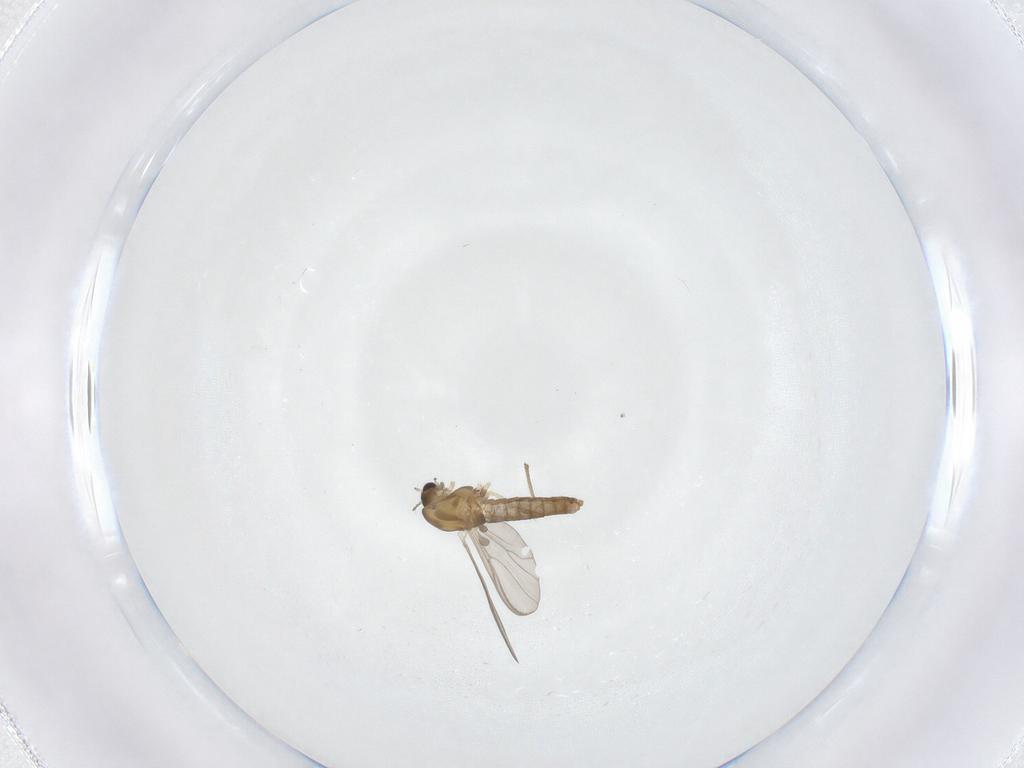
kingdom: Animalia
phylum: Arthropoda
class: Insecta
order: Diptera
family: Chironomidae
